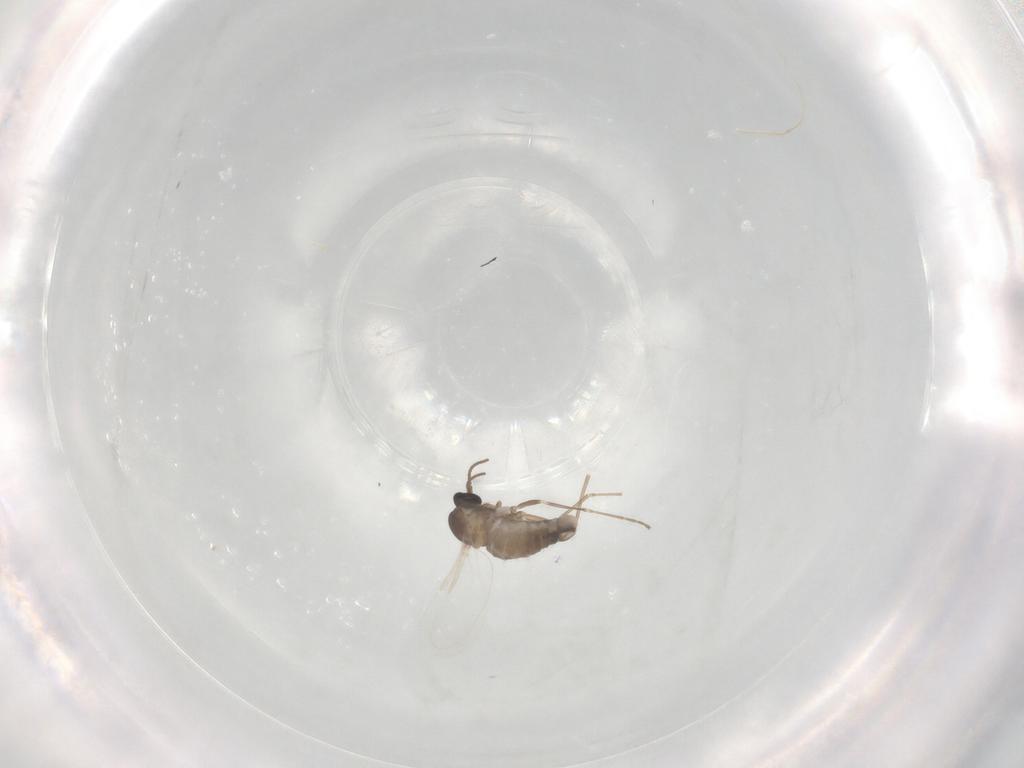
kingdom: Animalia
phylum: Arthropoda
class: Insecta
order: Diptera
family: Cecidomyiidae
